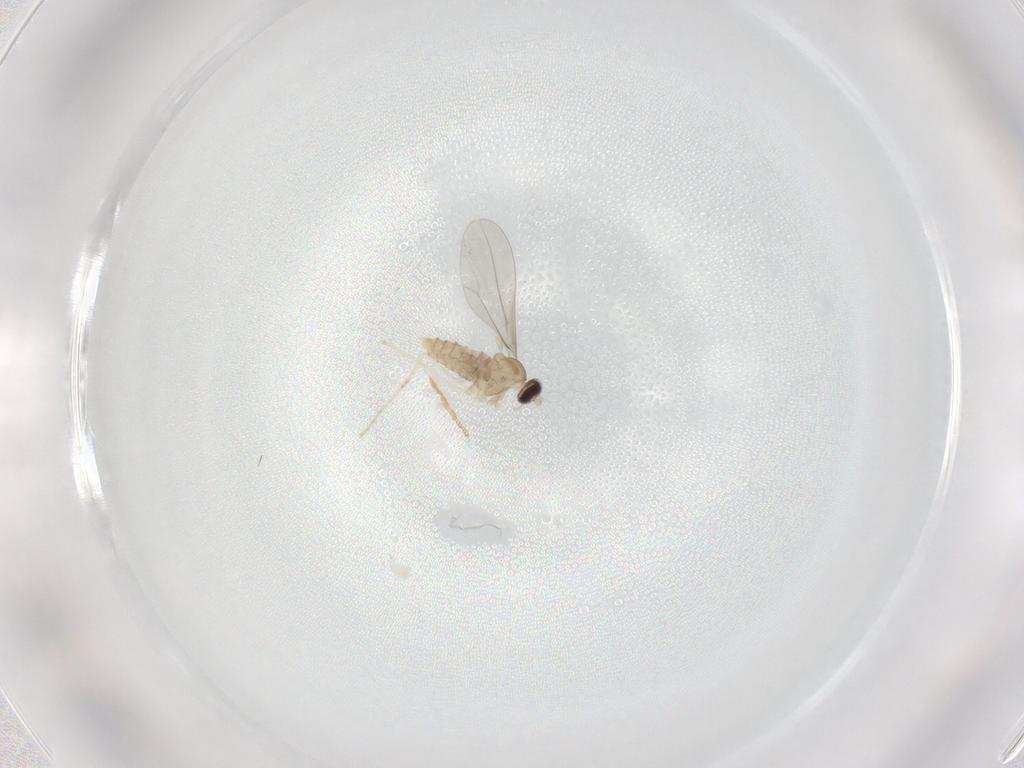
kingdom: Animalia
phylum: Arthropoda
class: Insecta
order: Diptera
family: Cecidomyiidae
